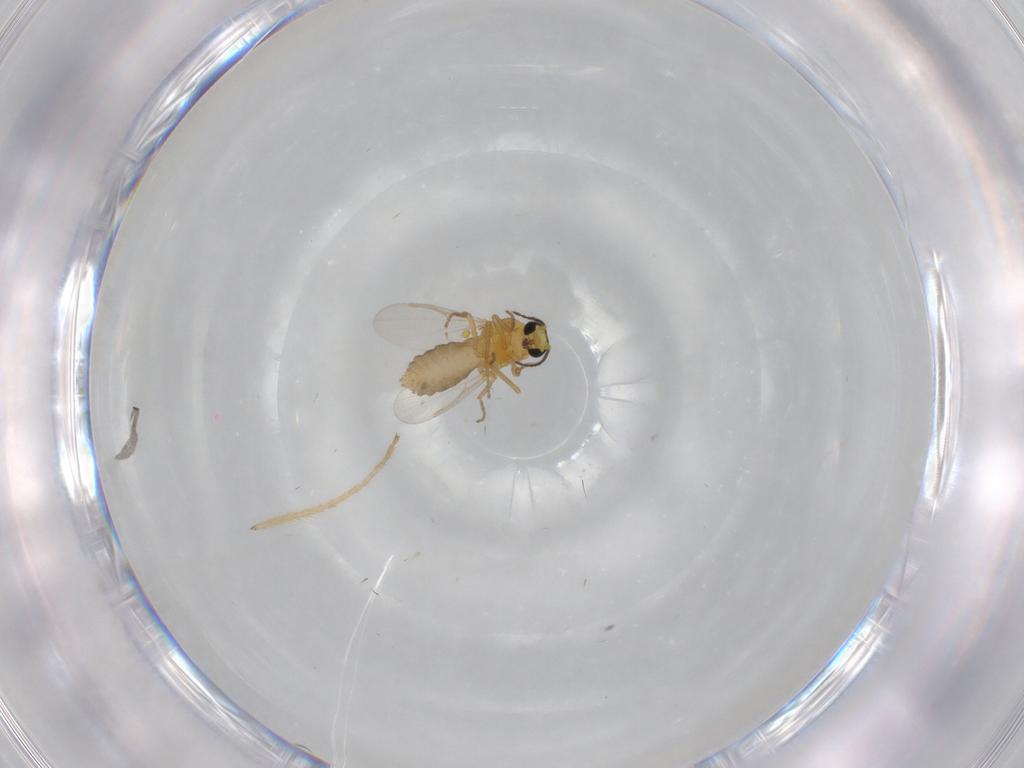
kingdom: Animalia
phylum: Arthropoda
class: Insecta
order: Diptera
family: Ceratopogonidae
